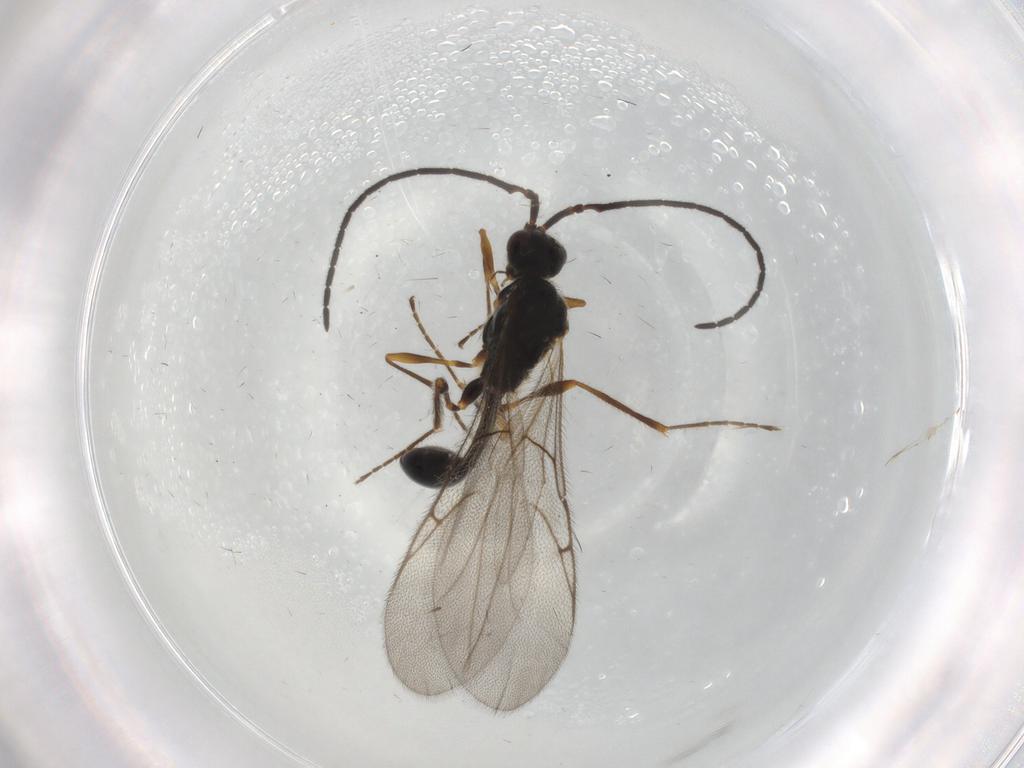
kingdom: Animalia
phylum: Arthropoda
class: Insecta
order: Hymenoptera
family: Diapriidae
